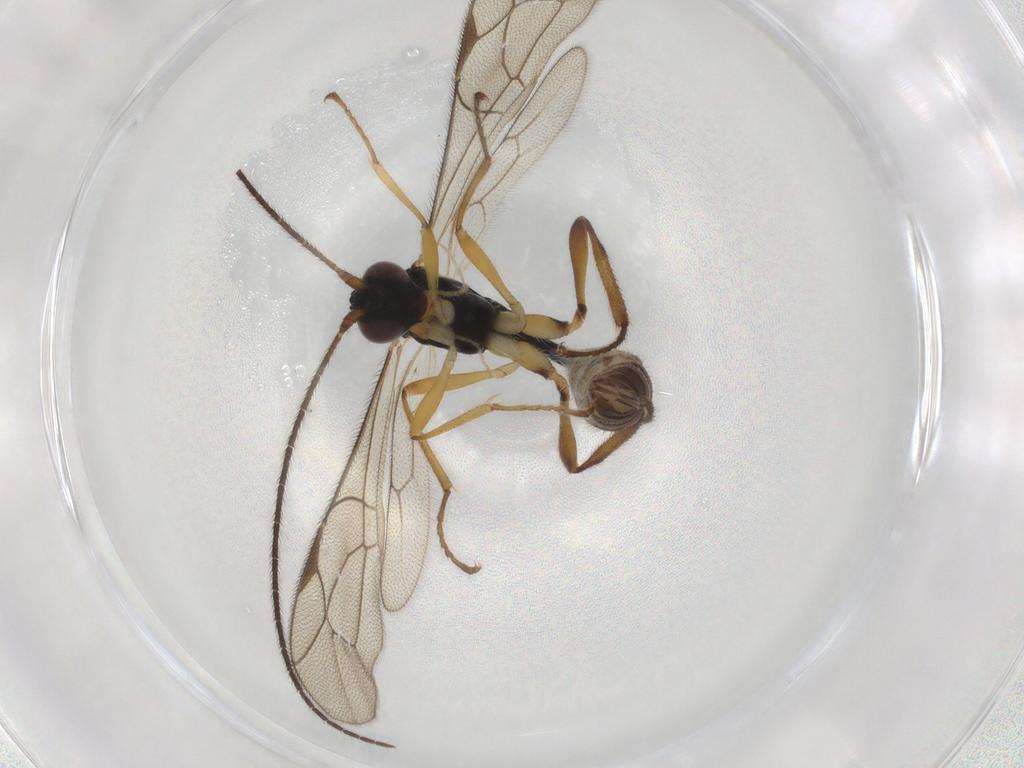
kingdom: Animalia
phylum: Arthropoda
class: Insecta
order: Hymenoptera
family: Ichneumonidae
